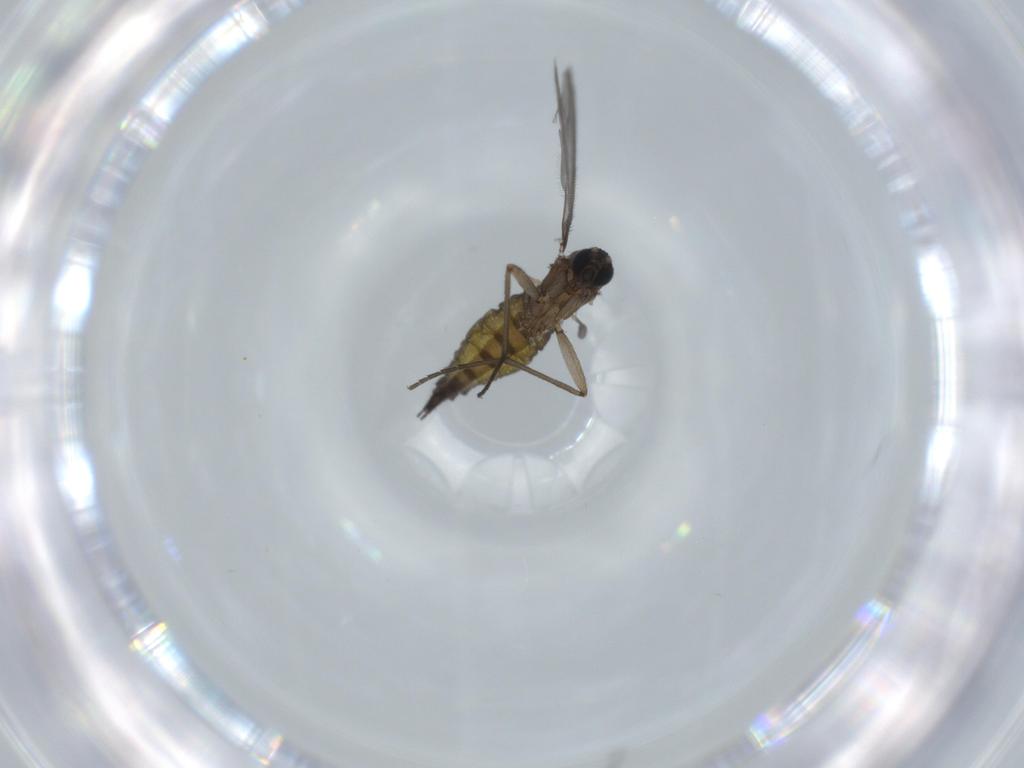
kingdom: Animalia
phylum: Arthropoda
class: Insecta
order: Diptera
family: Sciaridae
